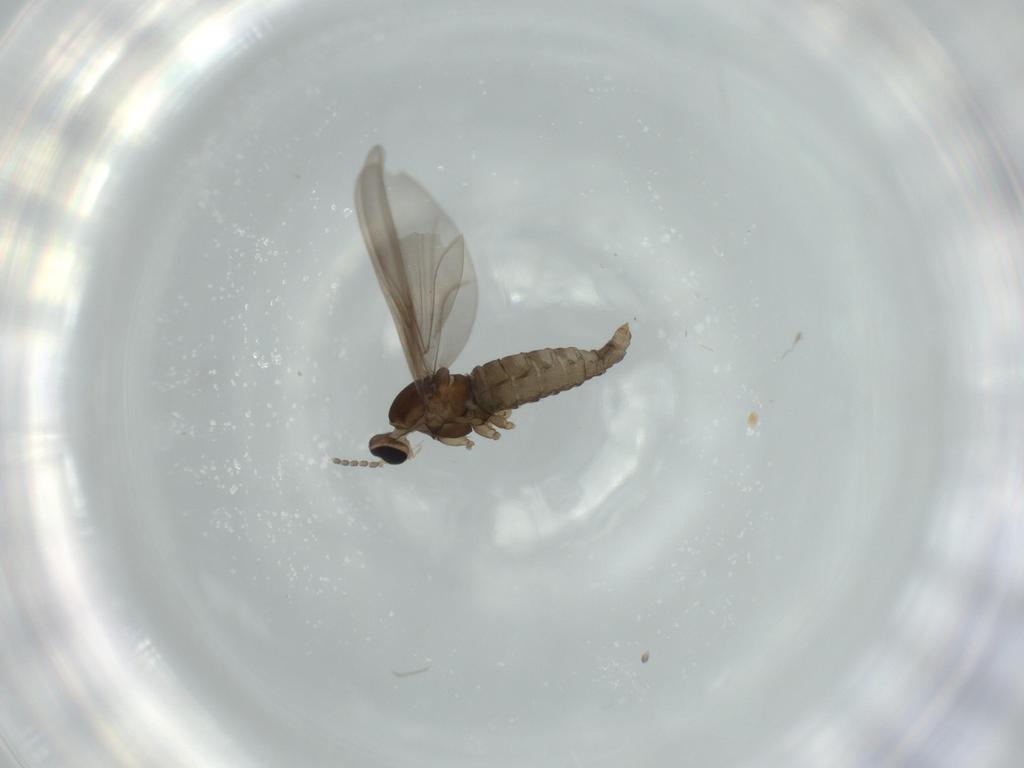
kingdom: Animalia
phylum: Arthropoda
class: Insecta
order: Diptera
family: Cecidomyiidae
